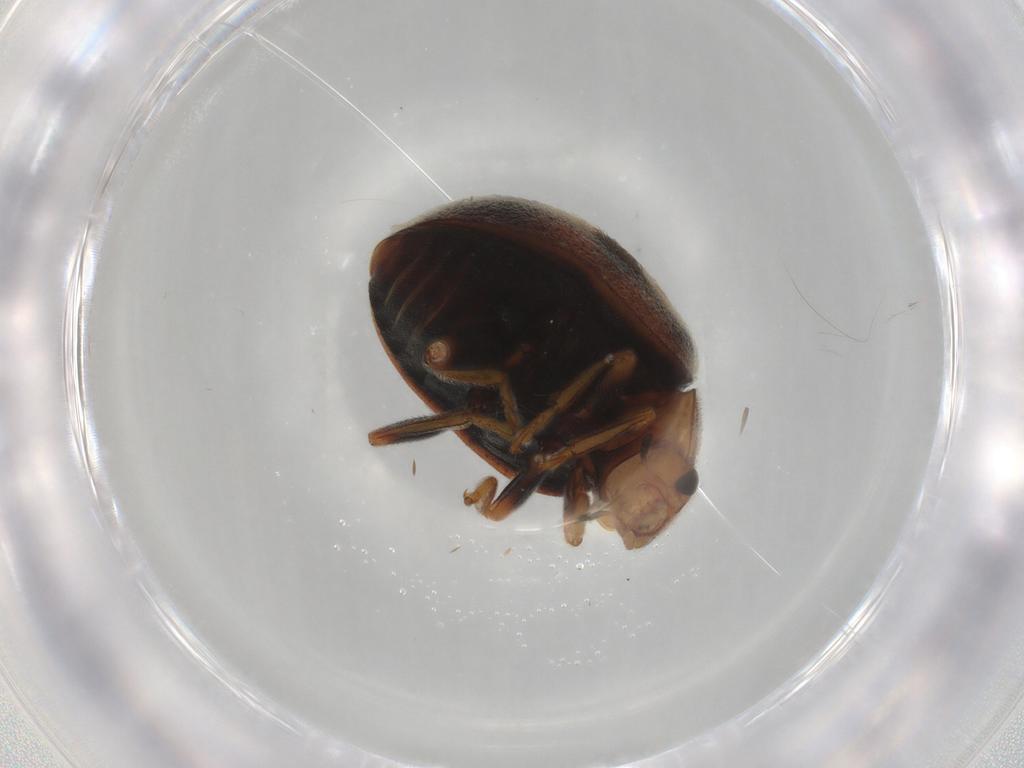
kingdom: Animalia
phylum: Arthropoda
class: Insecta
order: Coleoptera
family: Coccinellidae
